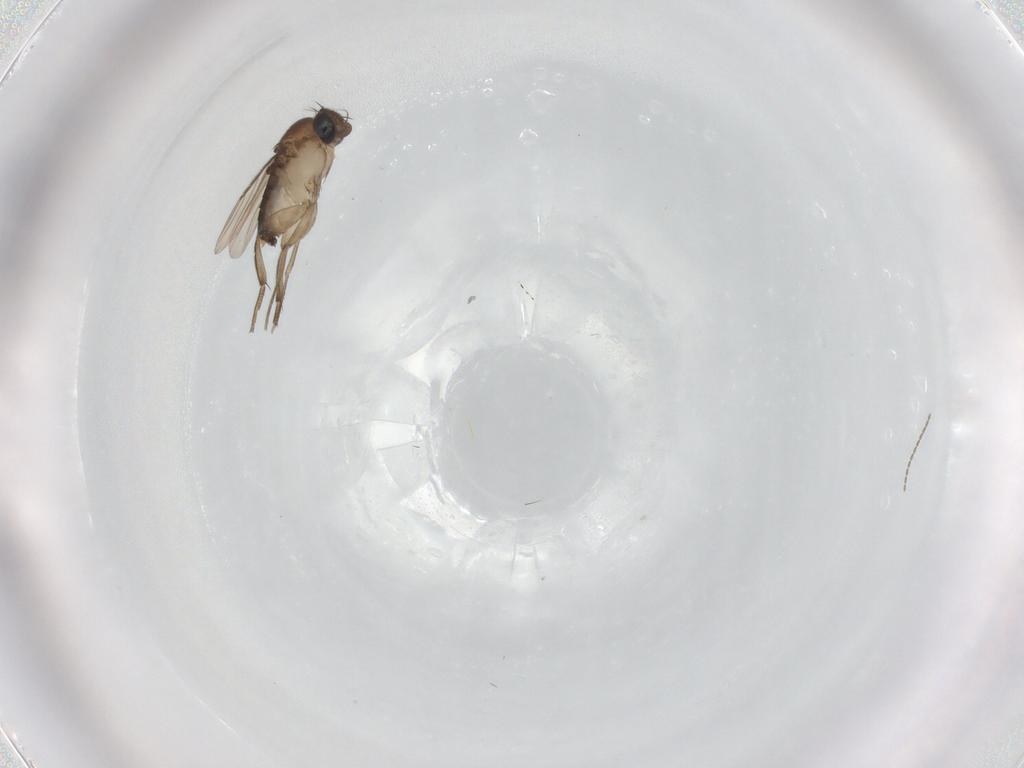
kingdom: Animalia
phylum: Arthropoda
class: Insecta
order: Diptera
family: Phoridae
